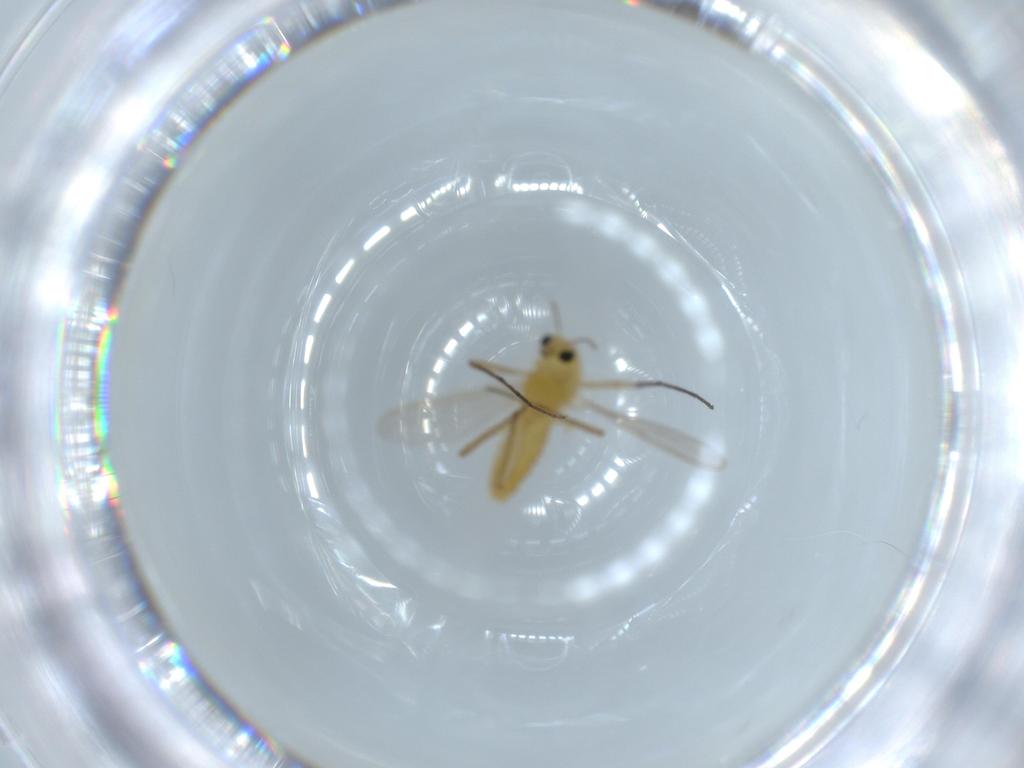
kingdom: Animalia
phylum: Arthropoda
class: Insecta
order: Diptera
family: Chironomidae
